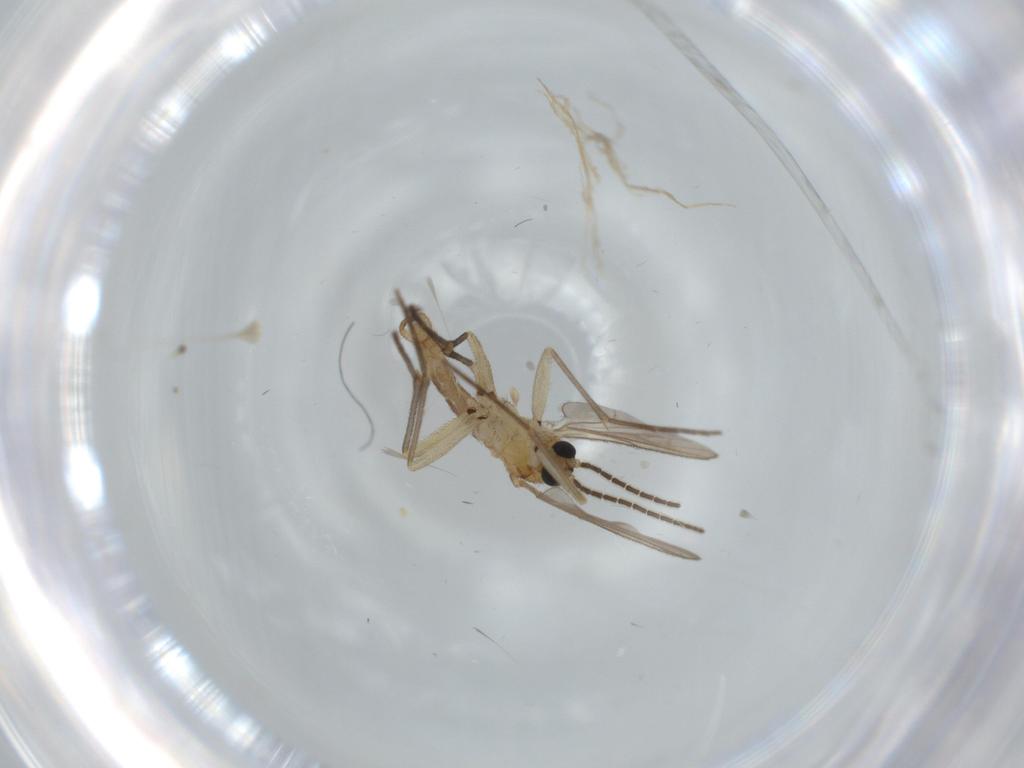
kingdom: Animalia
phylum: Arthropoda
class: Insecta
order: Diptera
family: Sciaridae
